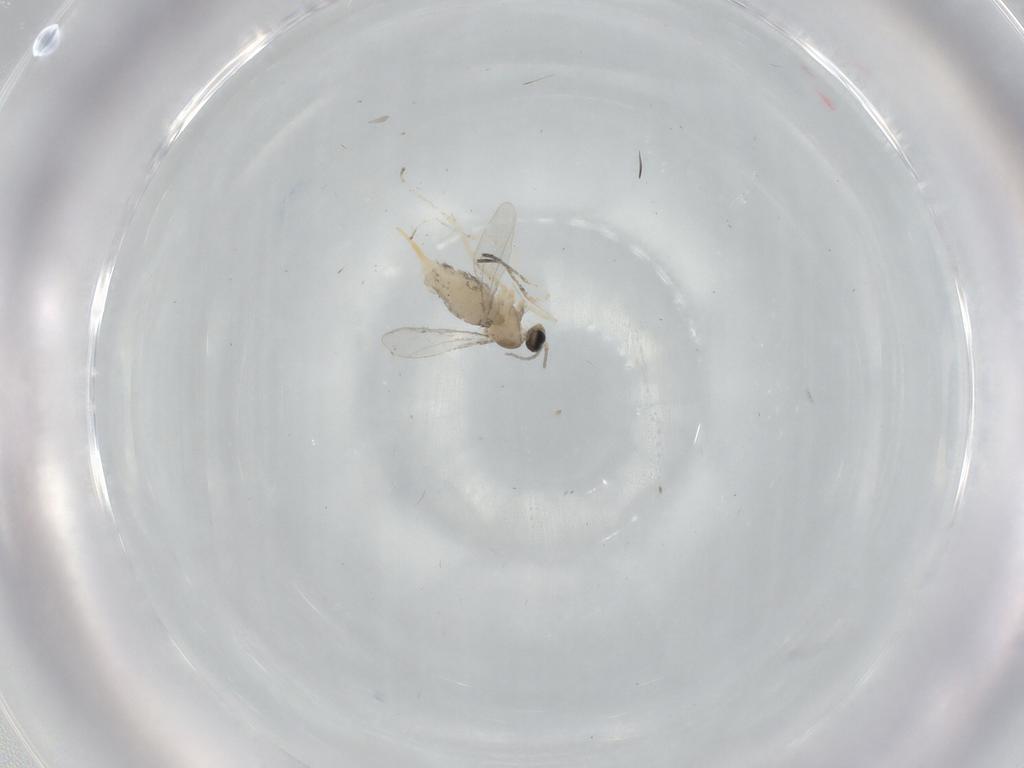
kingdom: Animalia
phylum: Arthropoda
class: Insecta
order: Diptera
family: Cecidomyiidae
